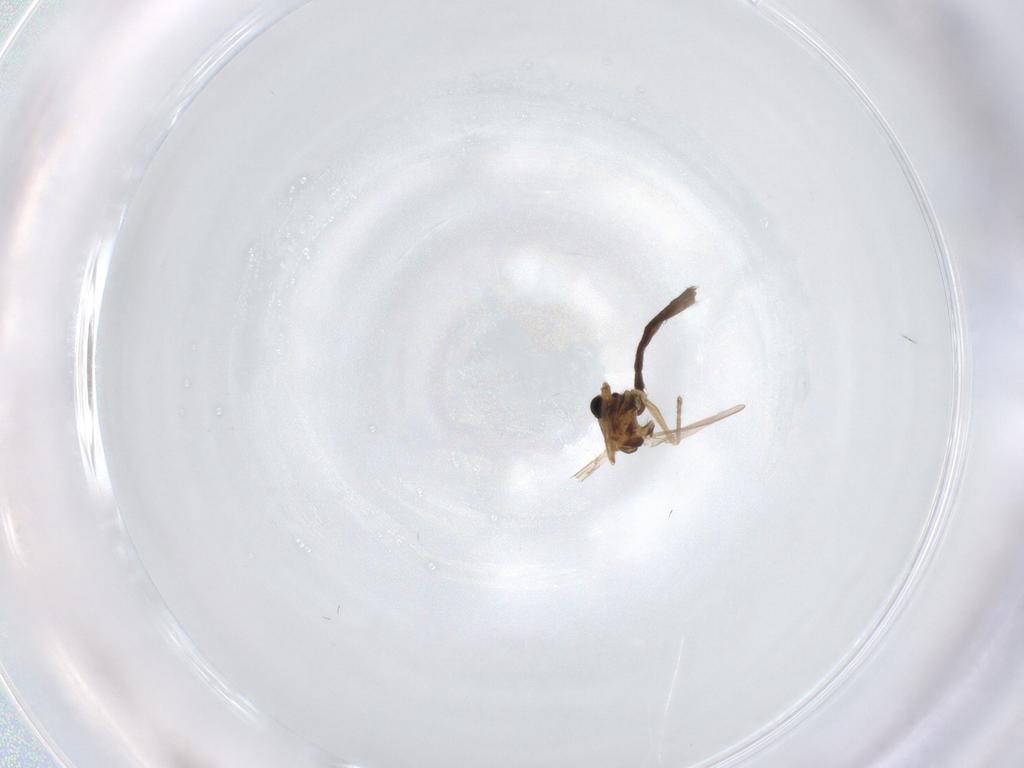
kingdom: Animalia
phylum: Arthropoda
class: Insecta
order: Diptera
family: Chironomidae
